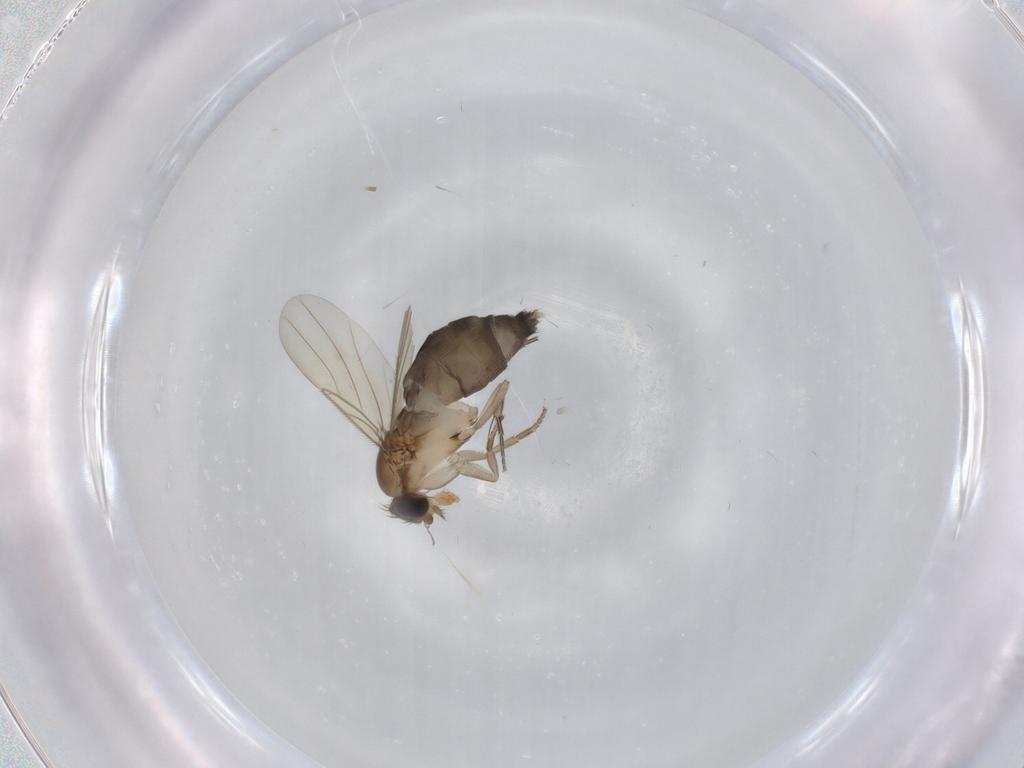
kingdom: Animalia
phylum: Arthropoda
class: Insecta
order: Diptera
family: Phoridae
